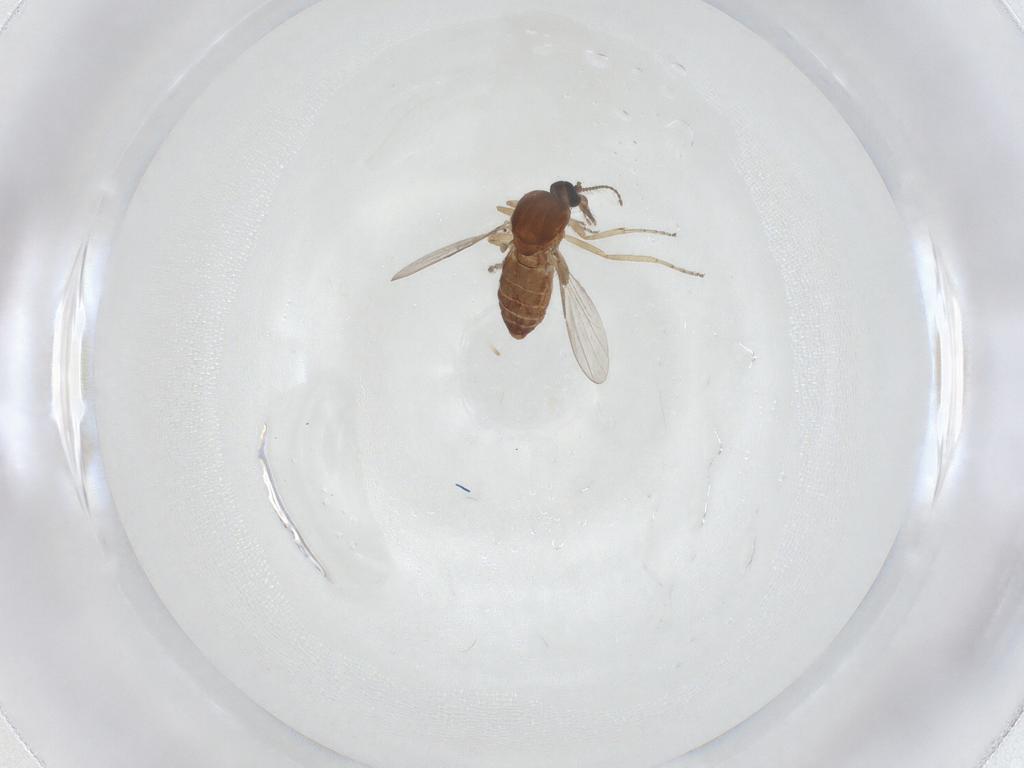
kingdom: Animalia
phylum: Arthropoda
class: Insecta
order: Diptera
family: Ceratopogonidae
